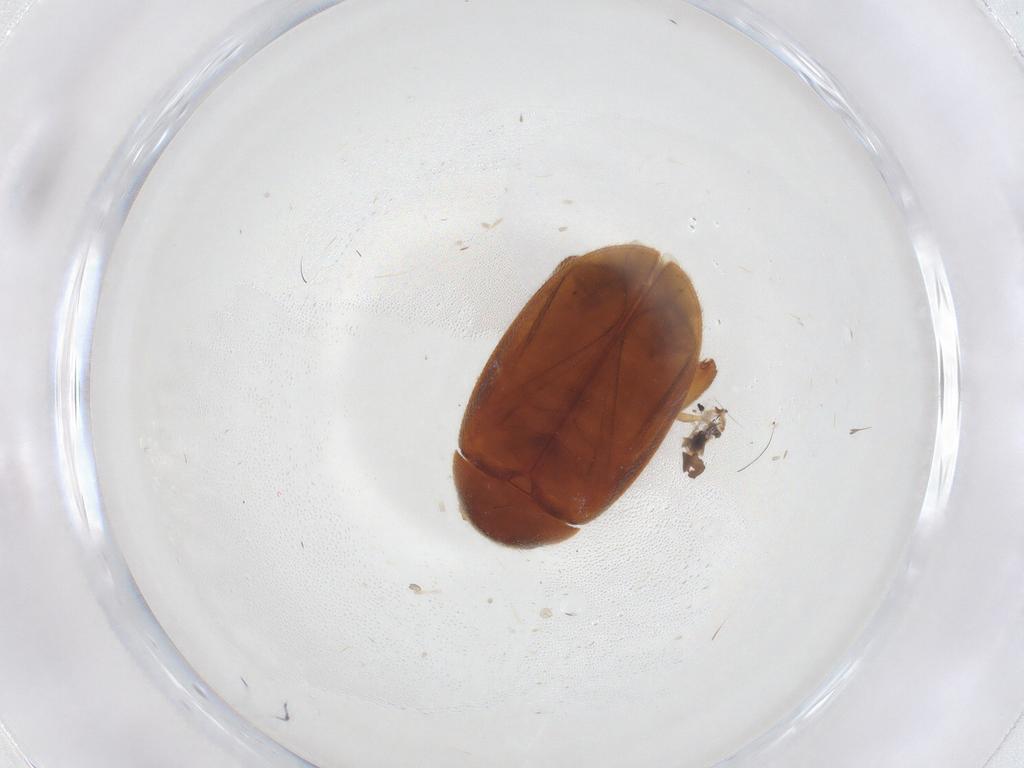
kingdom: Animalia
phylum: Arthropoda
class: Insecta
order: Coleoptera
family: Scirtidae
